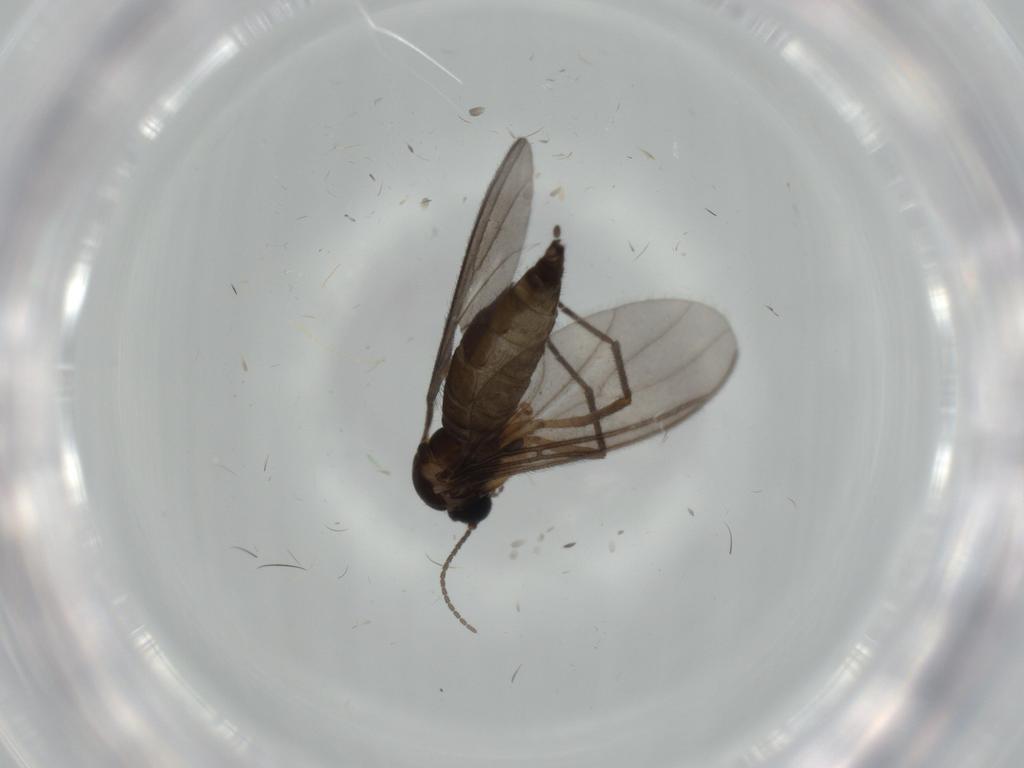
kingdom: Animalia
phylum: Arthropoda
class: Insecta
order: Diptera
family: Sciaridae
